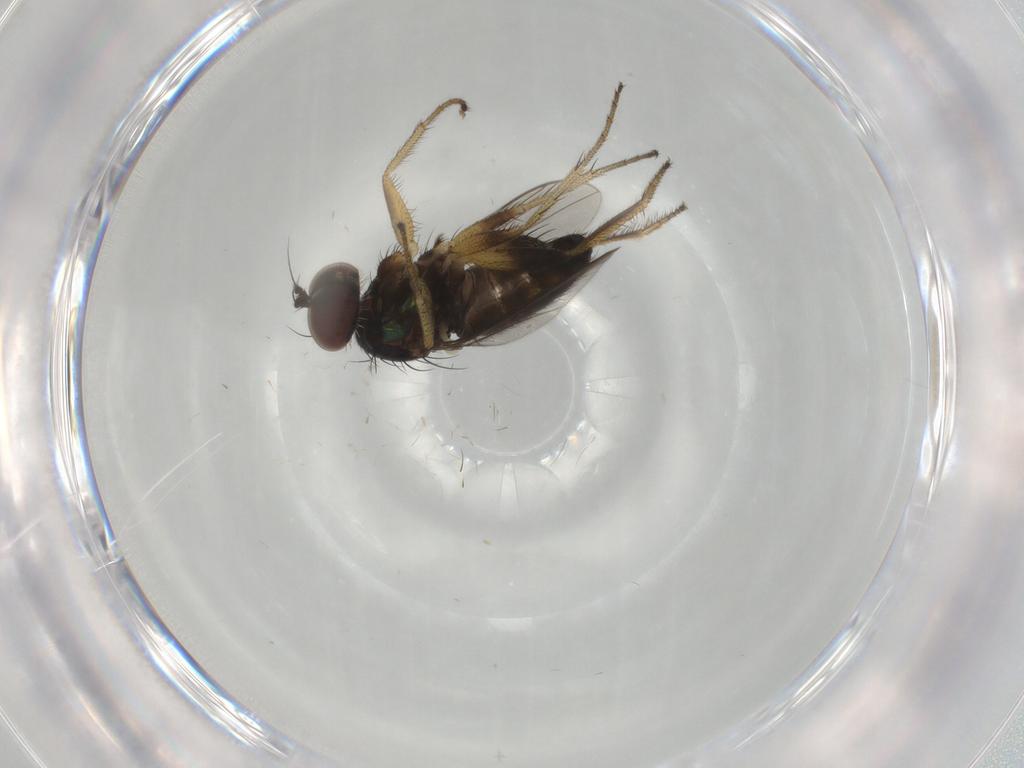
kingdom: Animalia
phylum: Arthropoda
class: Insecta
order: Diptera
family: Dolichopodidae
